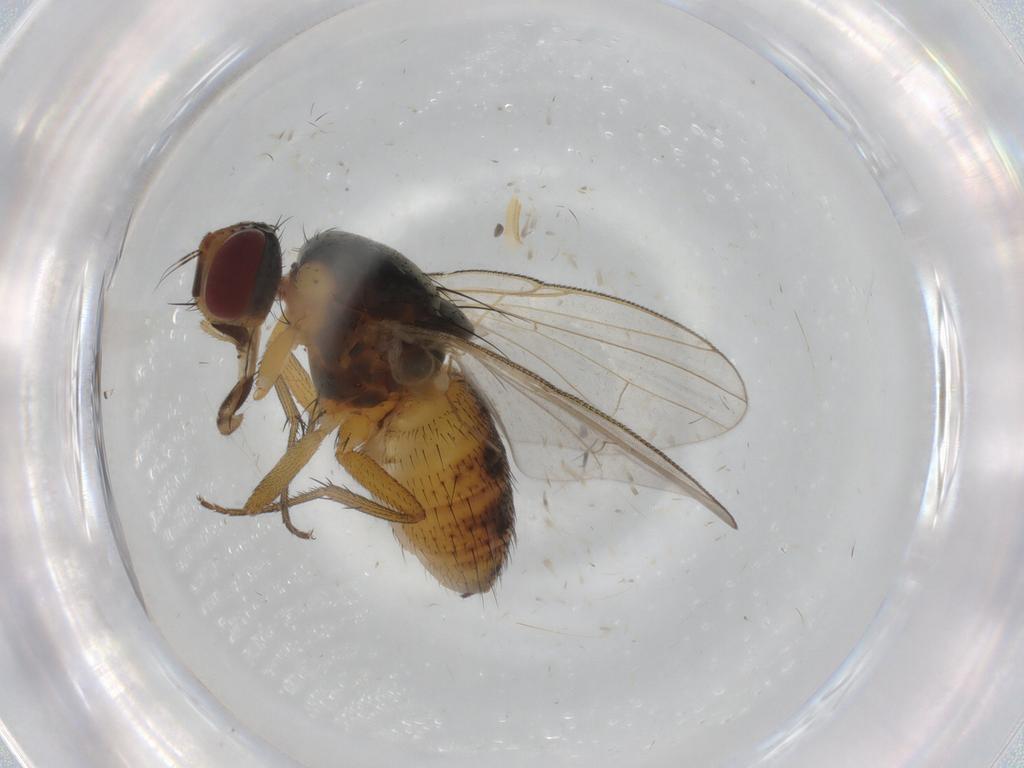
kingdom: Animalia
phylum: Arthropoda
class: Insecta
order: Diptera
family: Muscidae
